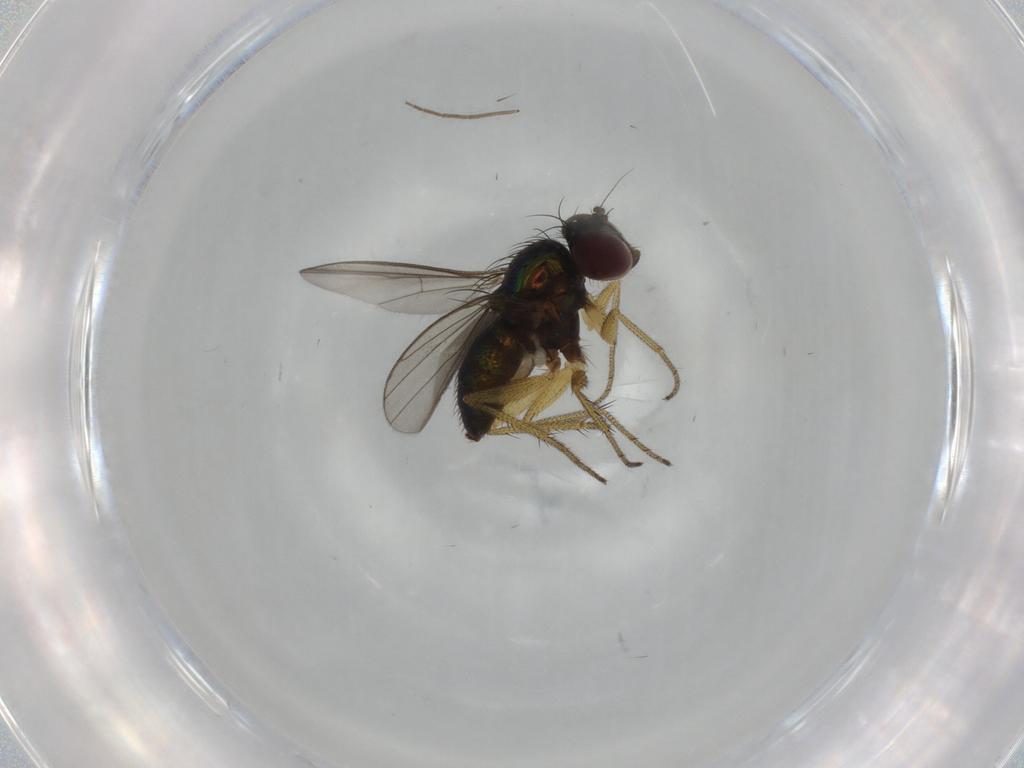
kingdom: Animalia
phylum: Arthropoda
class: Insecta
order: Diptera
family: Dolichopodidae
